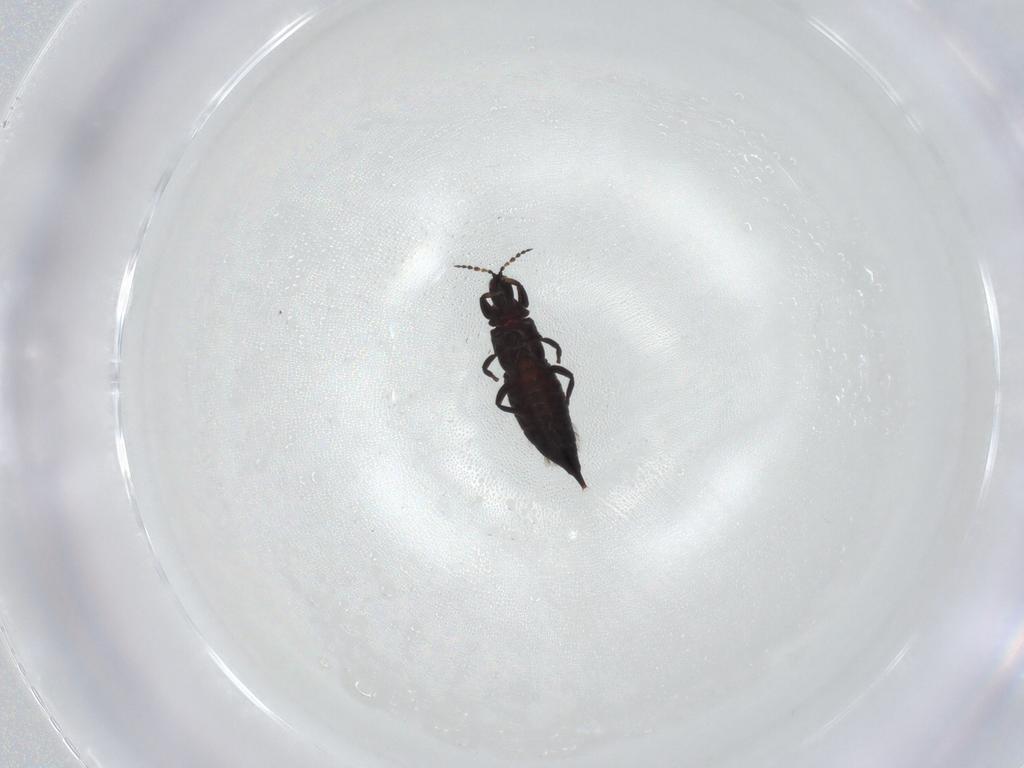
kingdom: Animalia
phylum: Arthropoda
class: Insecta
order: Thysanoptera
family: Phlaeothripidae
